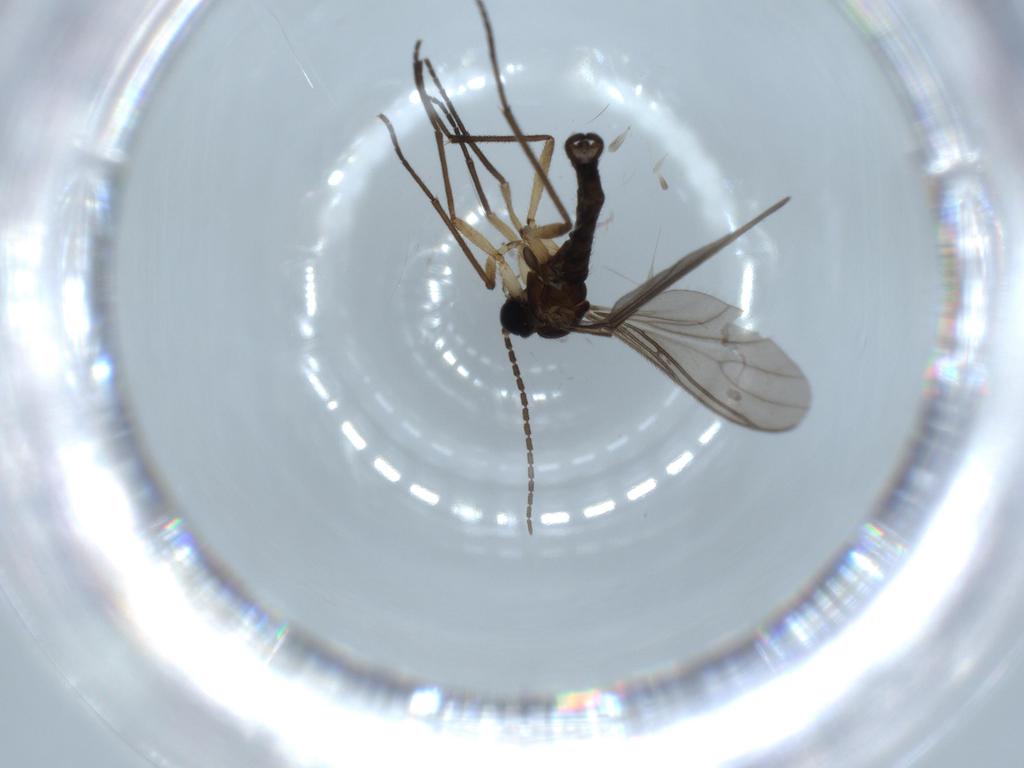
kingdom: Animalia
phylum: Arthropoda
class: Insecta
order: Diptera
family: Sciaridae
